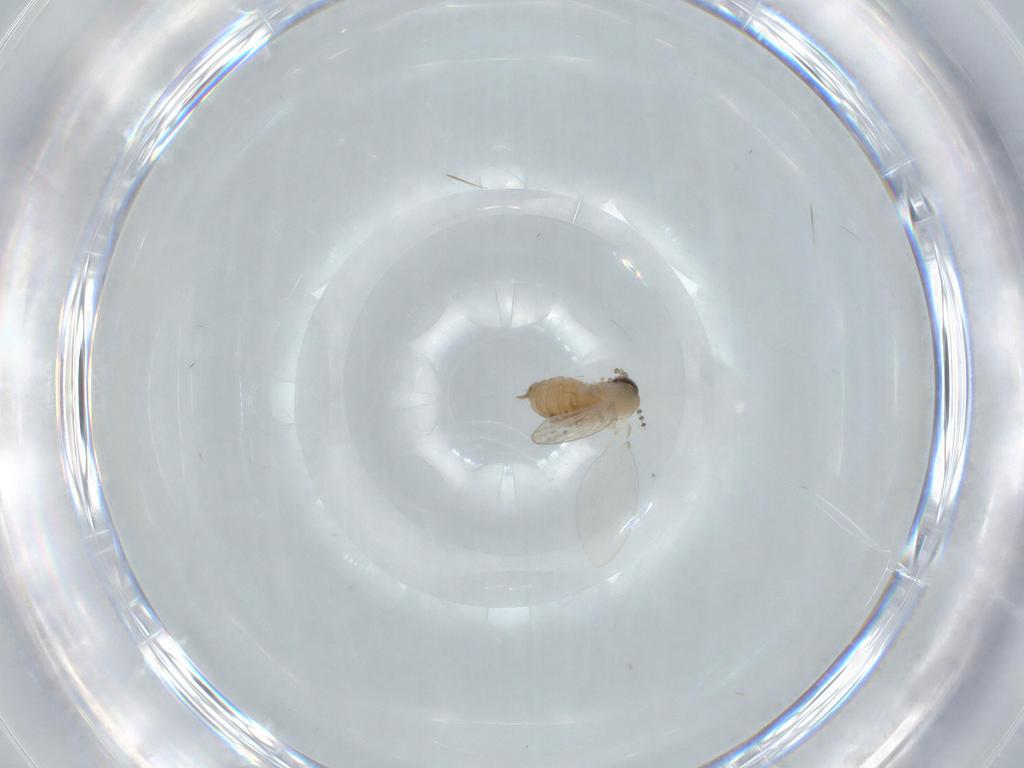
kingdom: Animalia
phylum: Arthropoda
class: Insecta
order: Diptera
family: Psychodidae
